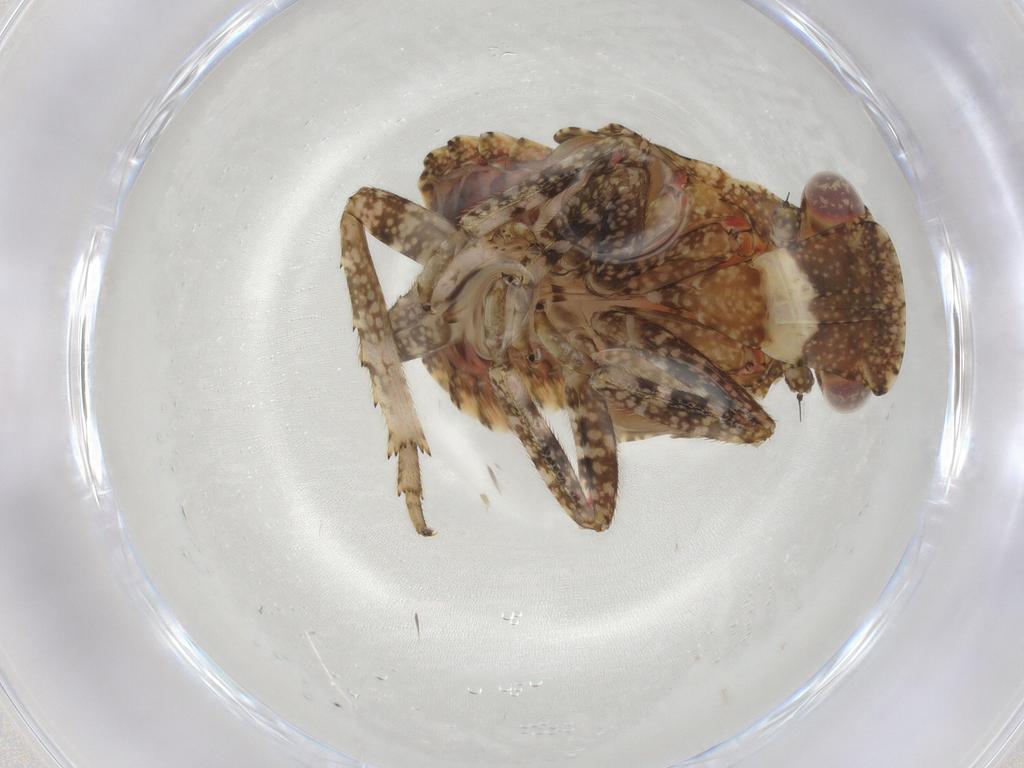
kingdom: Animalia
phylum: Arthropoda
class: Insecta
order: Hemiptera
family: Fulgoridae
